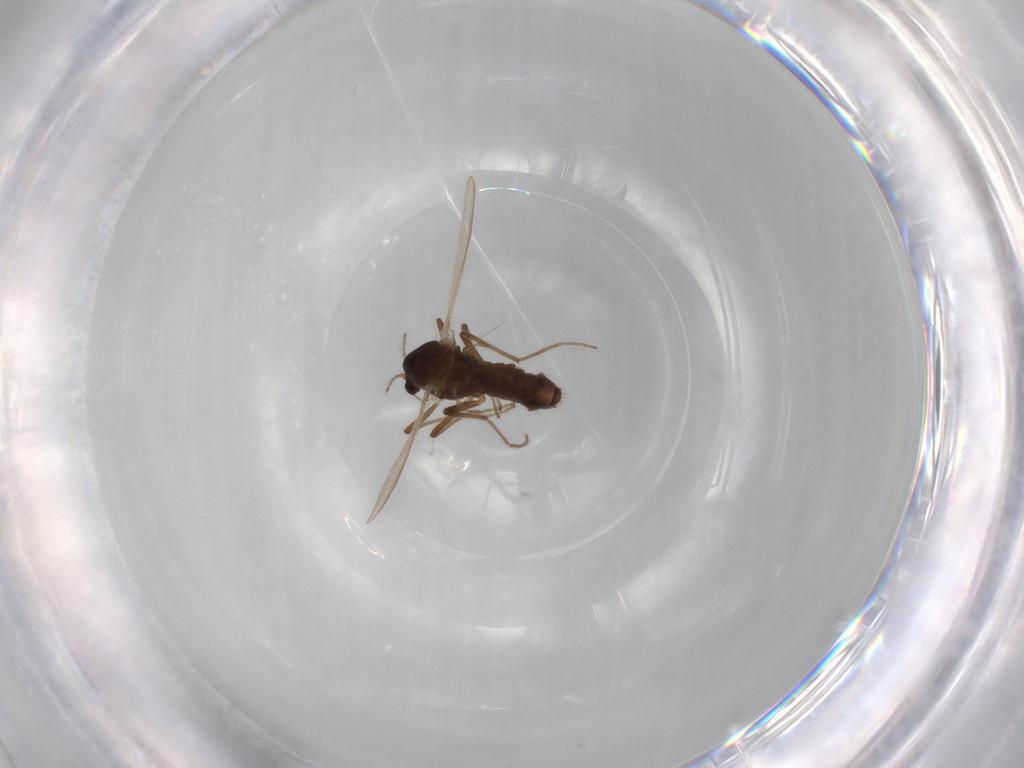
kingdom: Animalia
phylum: Arthropoda
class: Insecta
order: Diptera
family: Chironomidae
